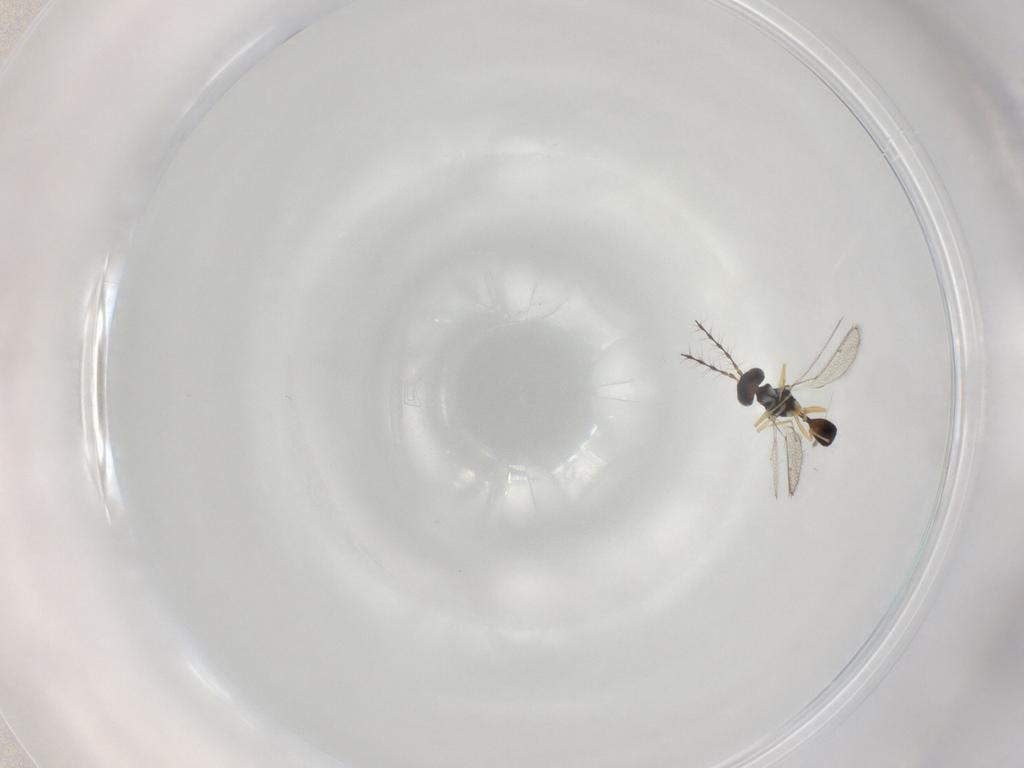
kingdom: Animalia
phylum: Arthropoda
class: Insecta
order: Hymenoptera
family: Diparidae
